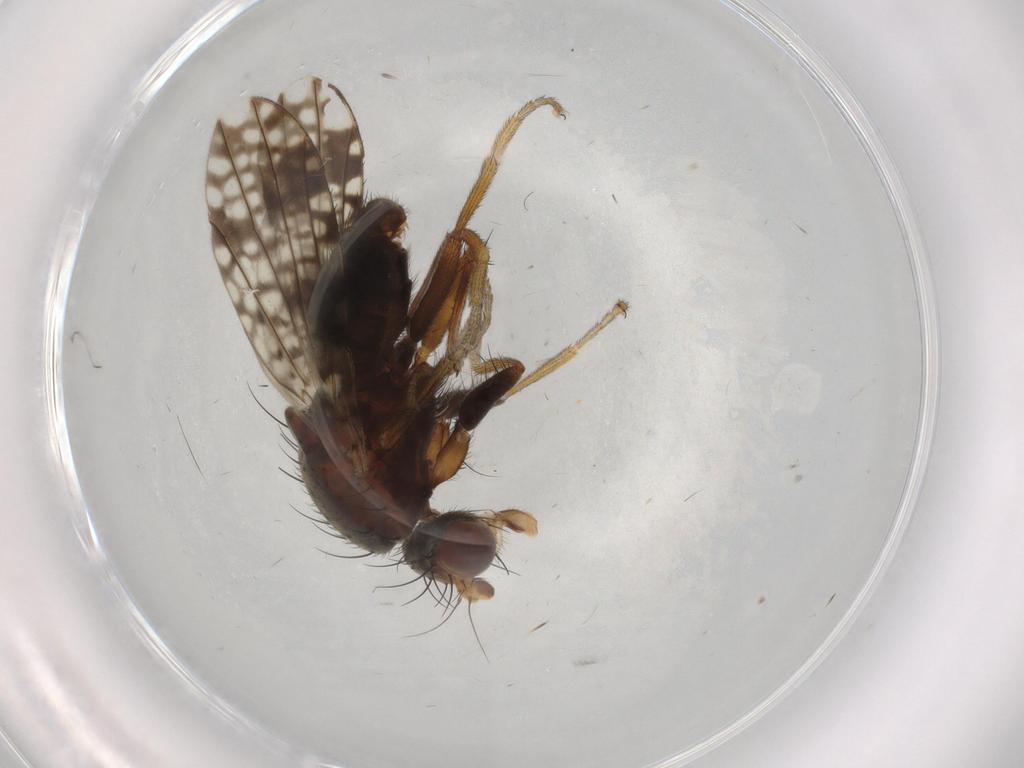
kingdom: Animalia
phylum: Arthropoda
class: Insecta
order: Diptera
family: Tephritidae
